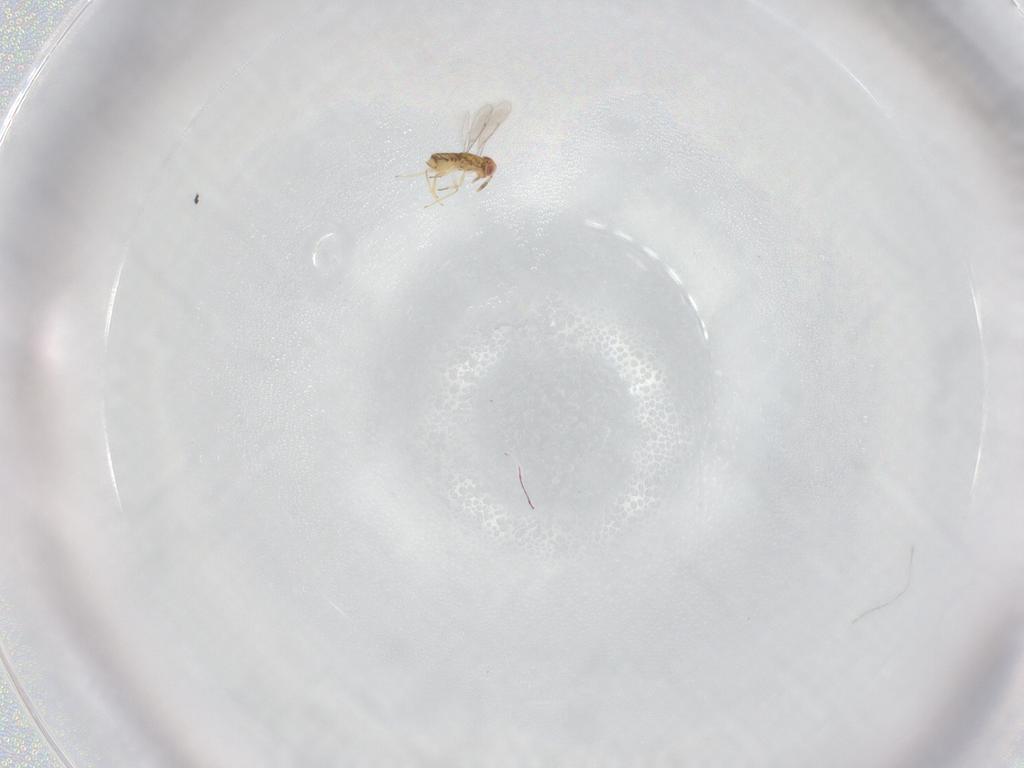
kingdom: Animalia
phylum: Arthropoda
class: Insecta
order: Hymenoptera
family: Aphelinidae
